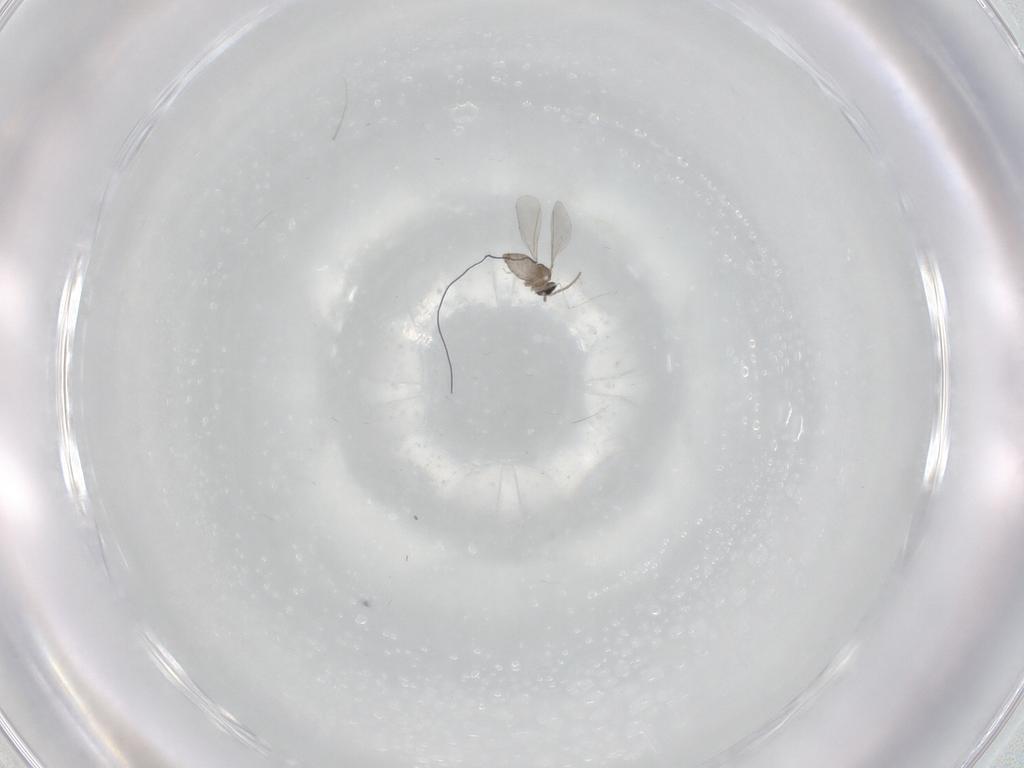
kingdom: Animalia
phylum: Arthropoda
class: Insecta
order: Diptera
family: Cecidomyiidae
